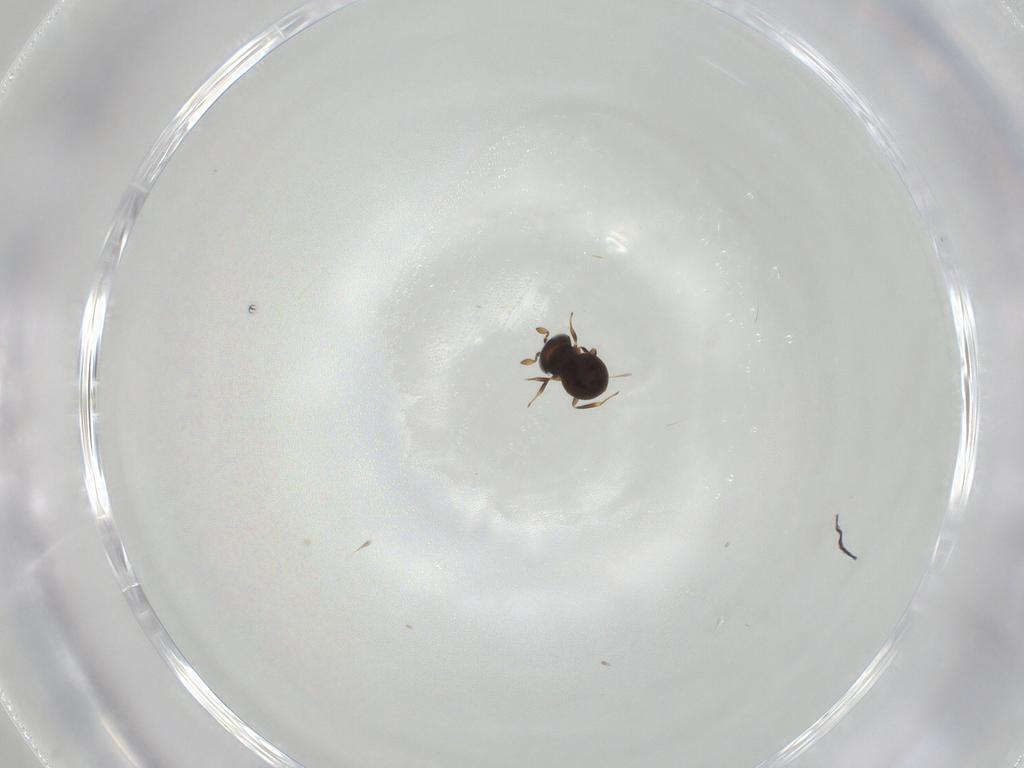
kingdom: Animalia
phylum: Arthropoda
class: Insecta
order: Hymenoptera
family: Scelionidae
